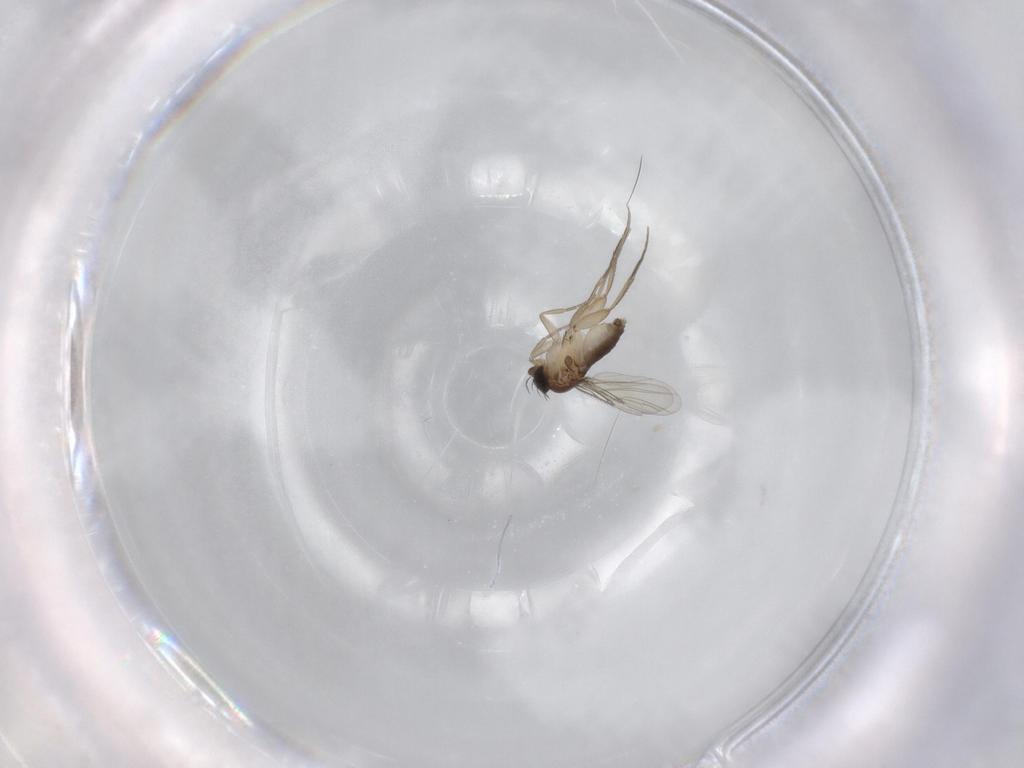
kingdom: Animalia
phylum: Arthropoda
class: Insecta
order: Diptera
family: Phoridae
